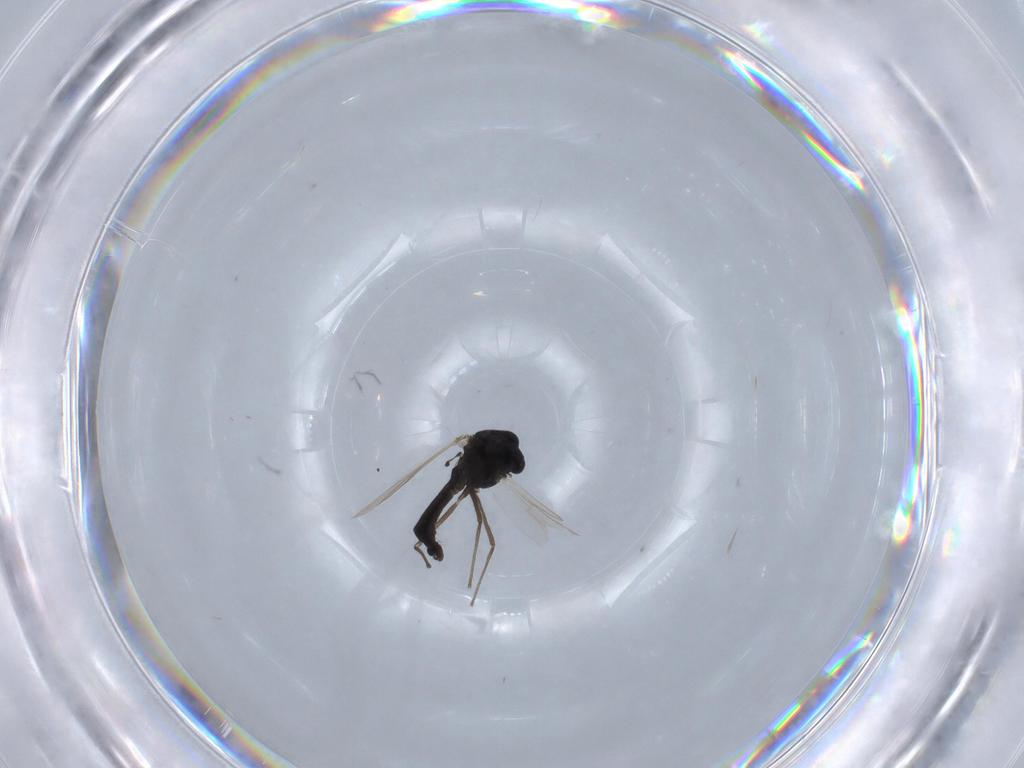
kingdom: Animalia
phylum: Arthropoda
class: Insecta
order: Diptera
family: Chironomidae
